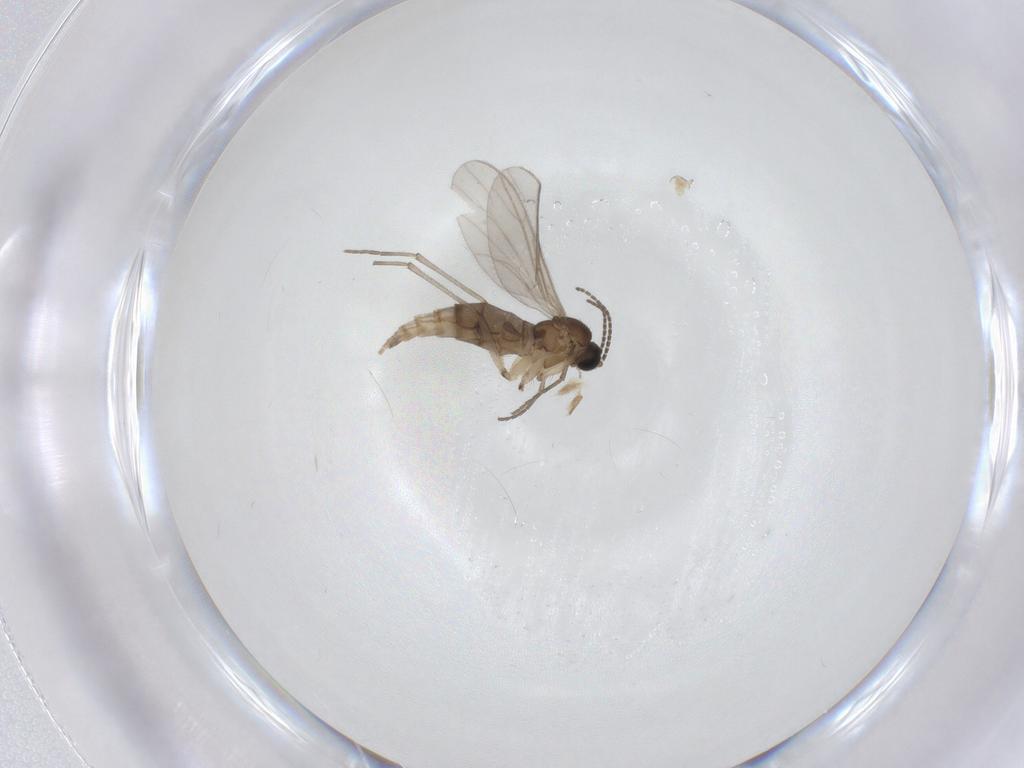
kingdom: Animalia
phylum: Arthropoda
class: Insecta
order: Diptera
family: Sciaridae
